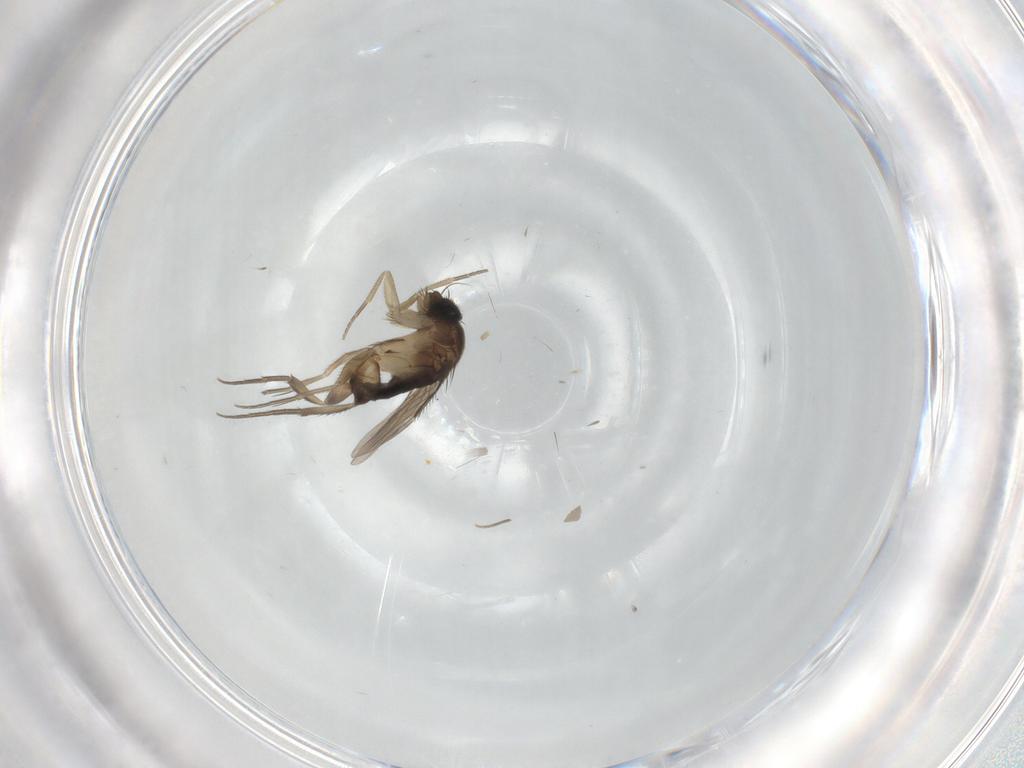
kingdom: Animalia
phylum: Arthropoda
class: Insecta
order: Diptera
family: Phoridae
